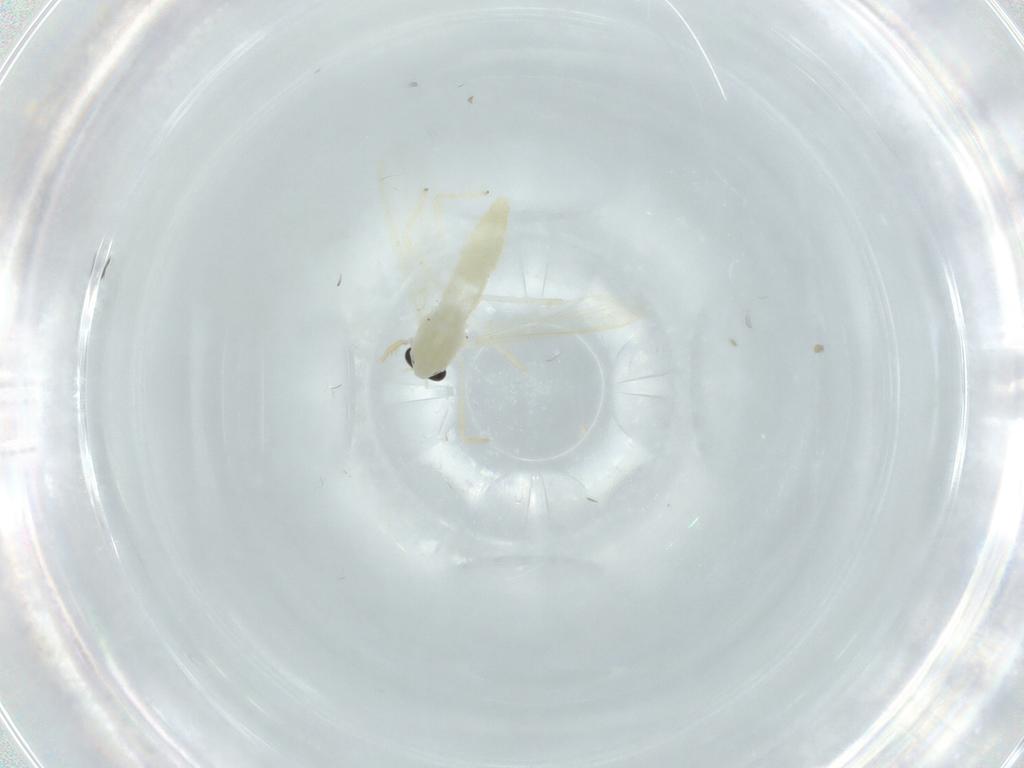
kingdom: Animalia
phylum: Arthropoda
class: Insecta
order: Diptera
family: Chironomidae
